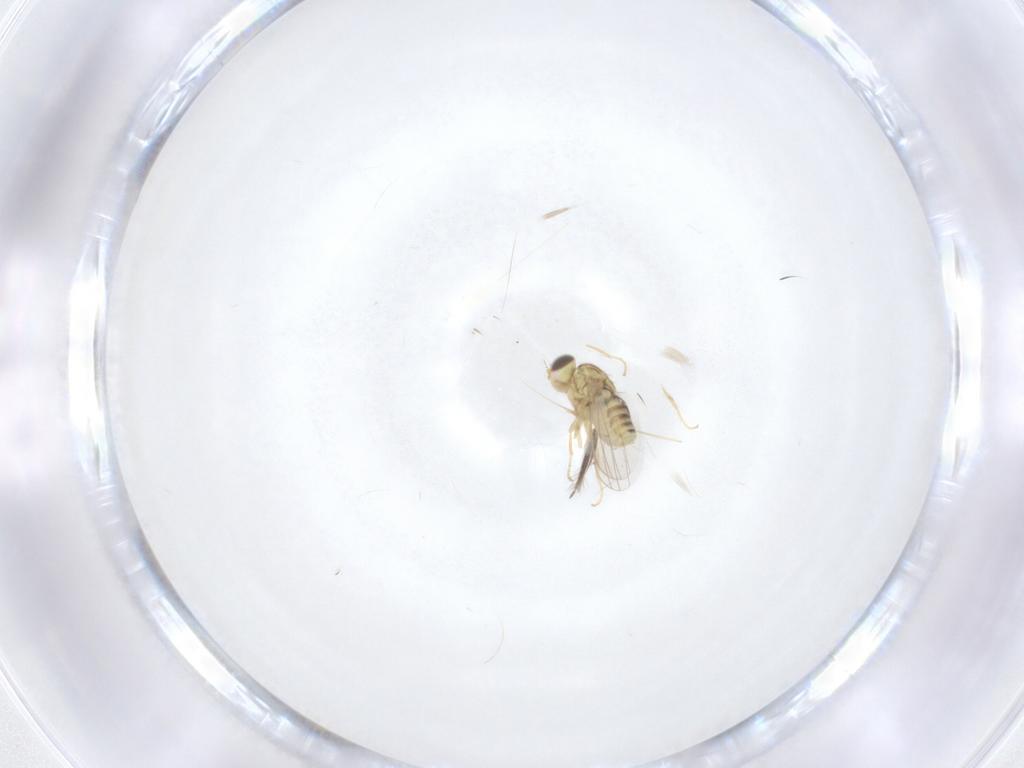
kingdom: Animalia
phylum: Arthropoda
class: Insecta
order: Diptera
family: Chyromyidae
